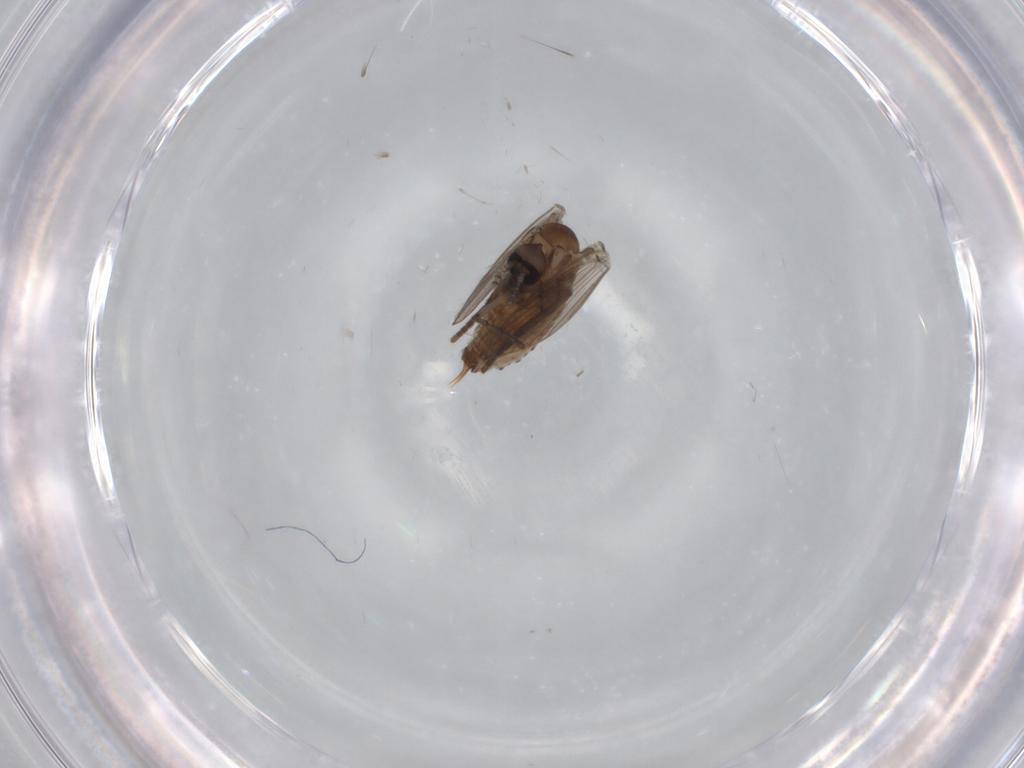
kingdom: Animalia
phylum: Arthropoda
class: Insecta
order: Diptera
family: Psychodidae
